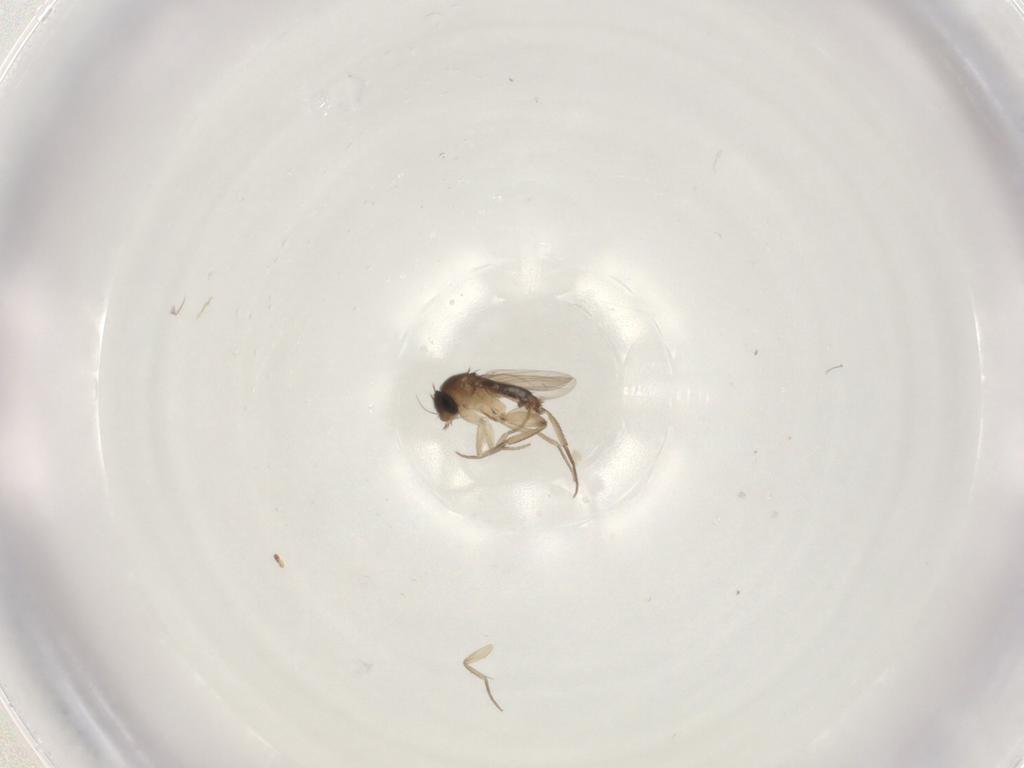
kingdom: Animalia
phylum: Arthropoda
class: Insecta
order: Diptera
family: Phoridae
